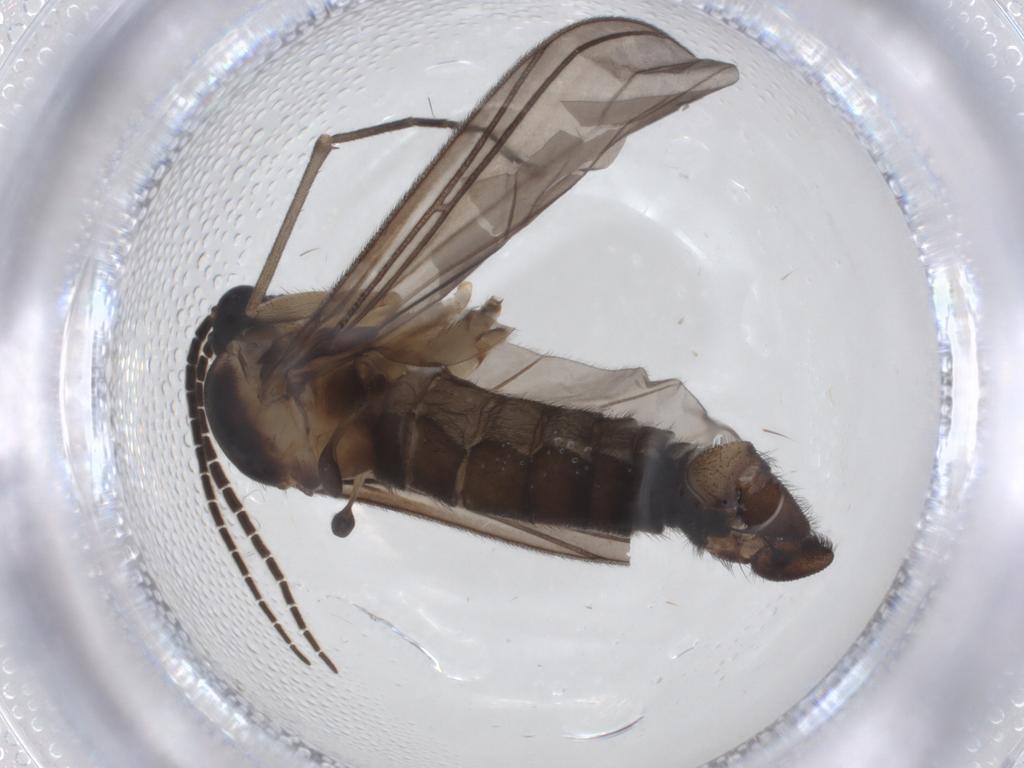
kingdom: Animalia
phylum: Arthropoda
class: Insecta
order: Diptera
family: Sciaridae
